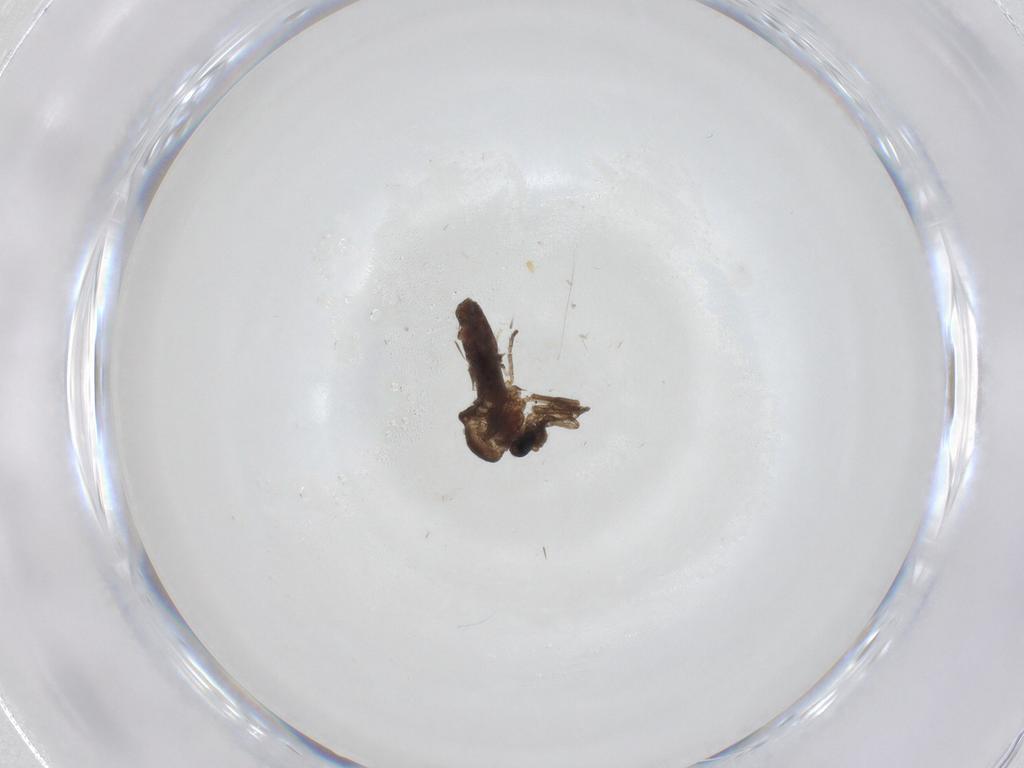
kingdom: Animalia
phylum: Arthropoda
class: Insecta
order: Diptera
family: Ceratopogonidae
